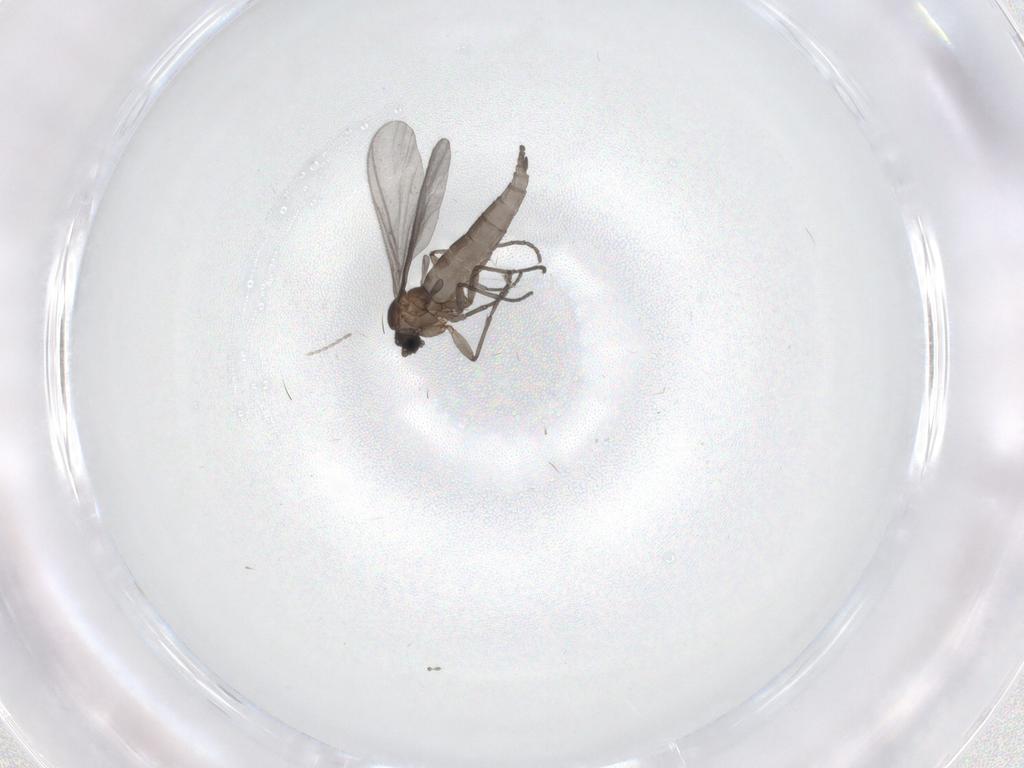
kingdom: Animalia
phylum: Arthropoda
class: Insecta
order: Diptera
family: Sciaridae
